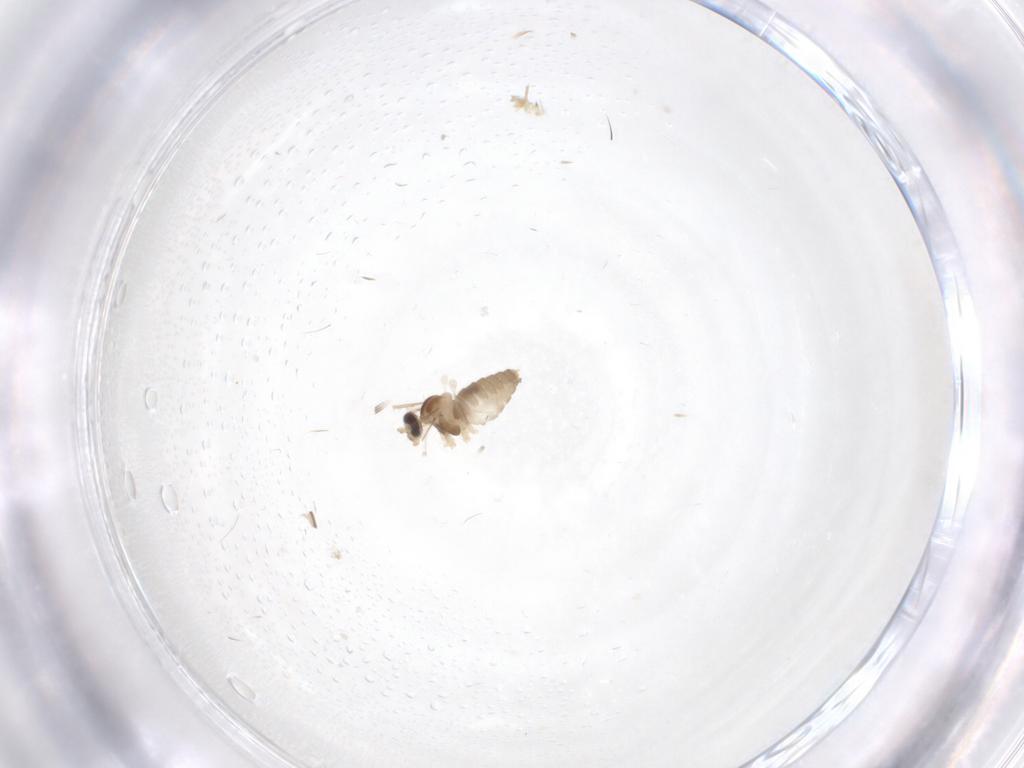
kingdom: Animalia
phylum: Arthropoda
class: Insecta
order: Diptera
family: Cecidomyiidae
